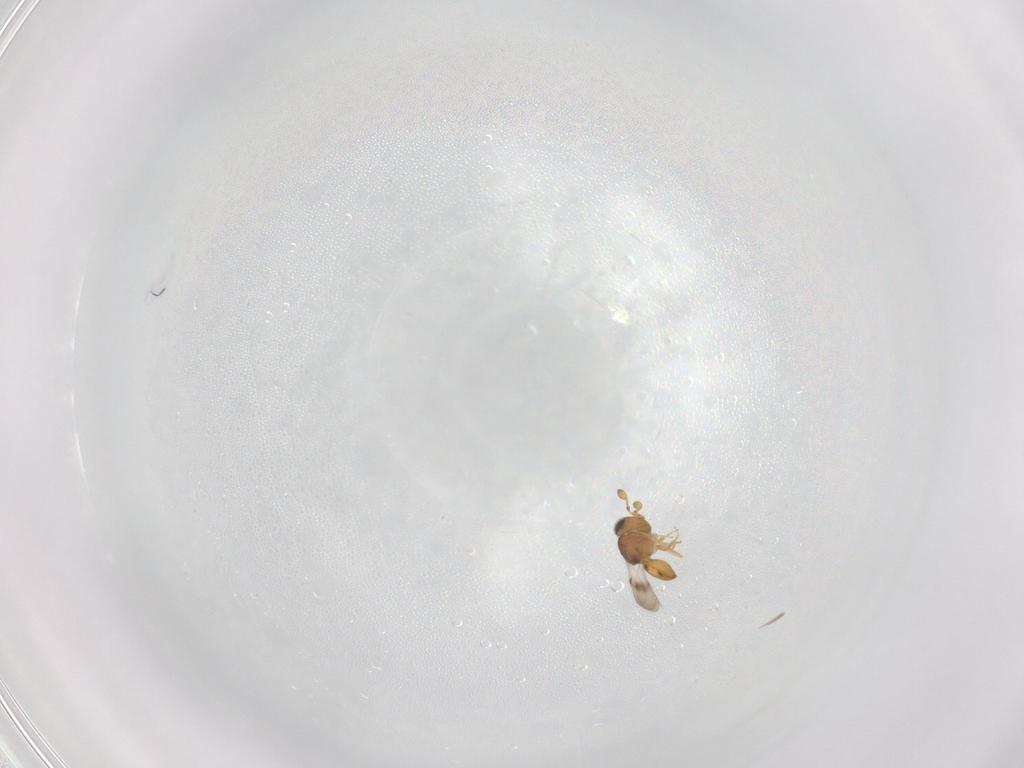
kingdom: Animalia
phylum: Arthropoda
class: Insecta
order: Hymenoptera
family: Scelionidae
